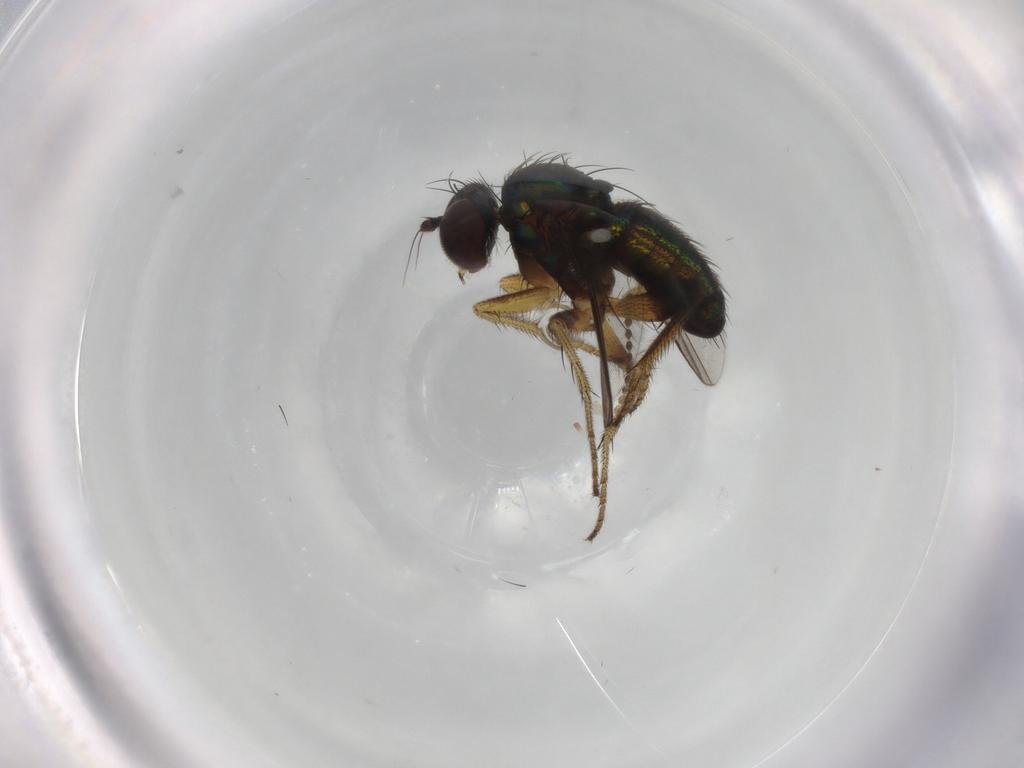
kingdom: Animalia
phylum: Arthropoda
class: Insecta
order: Diptera
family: Dolichopodidae
